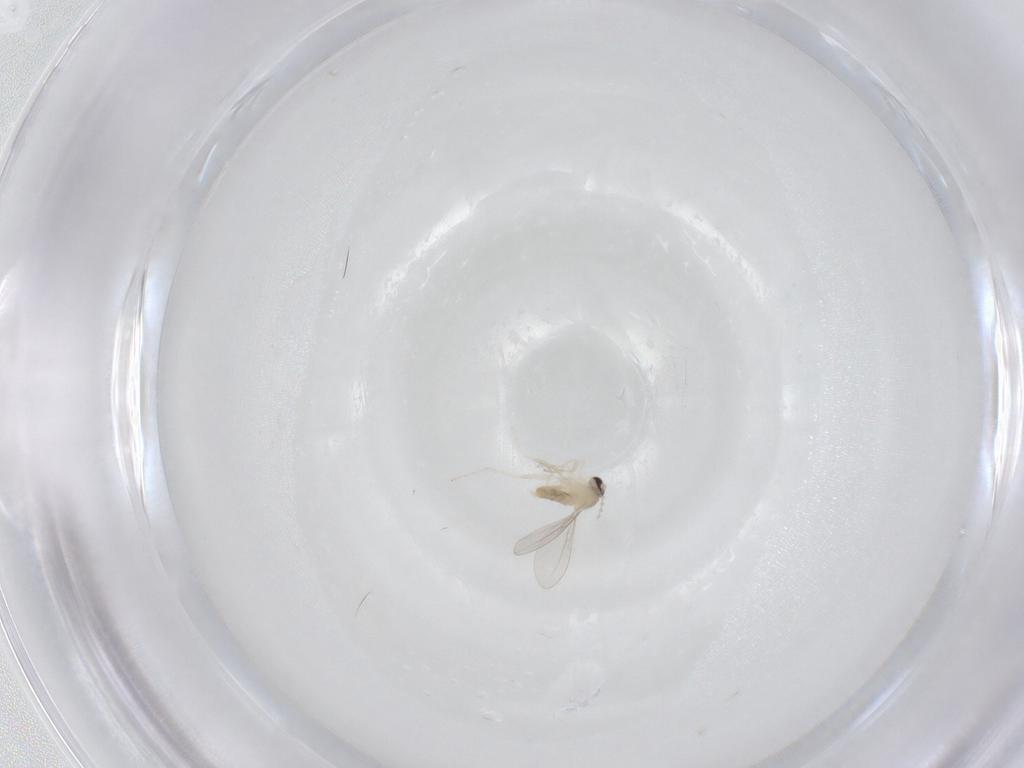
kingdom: Animalia
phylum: Arthropoda
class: Insecta
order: Diptera
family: Cecidomyiidae
